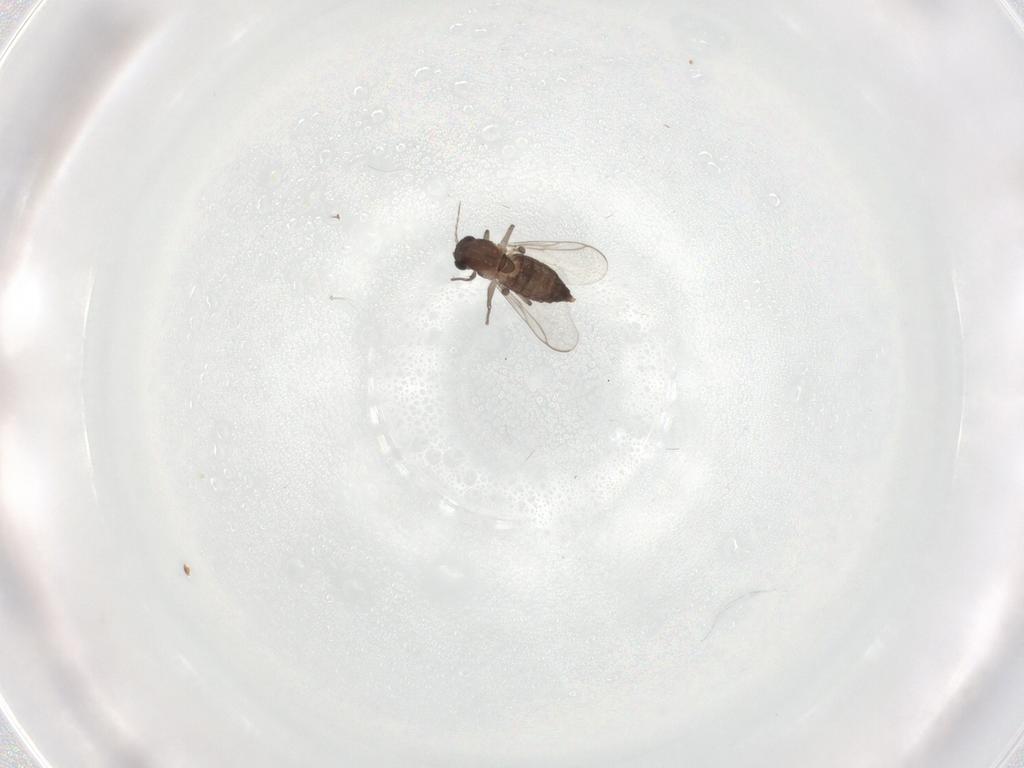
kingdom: Animalia
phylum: Arthropoda
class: Insecta
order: Diptera
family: Chironomidae
